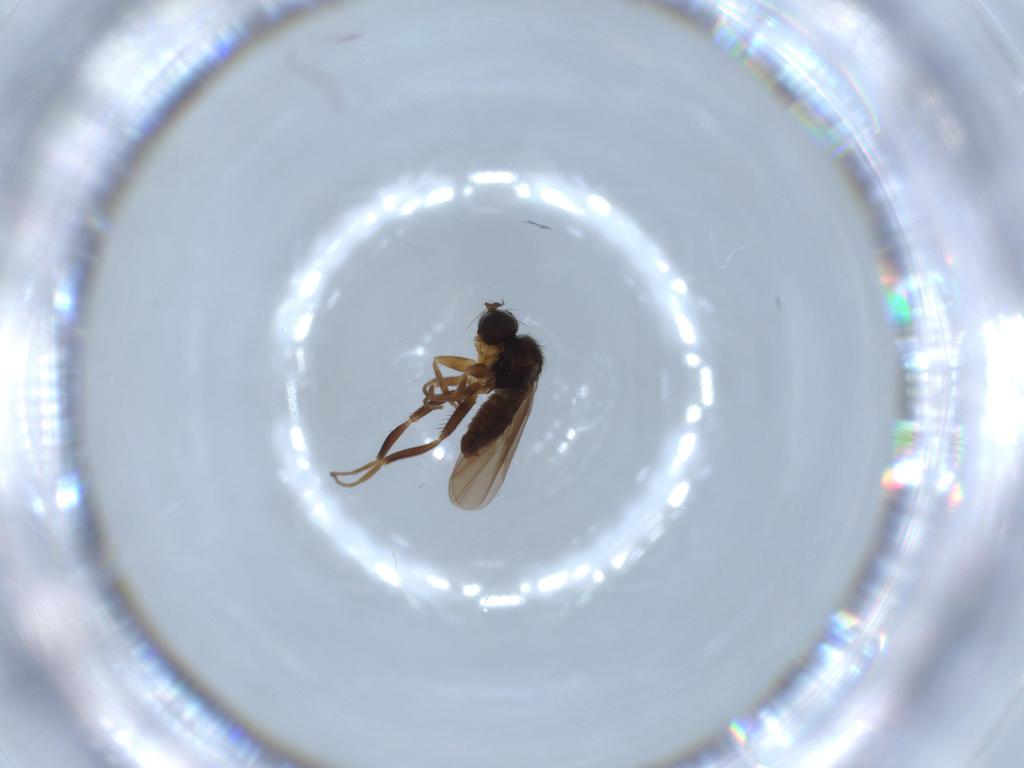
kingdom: Animalia
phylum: Arthropoda
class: Insecta
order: Diptera
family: Hybotidae
